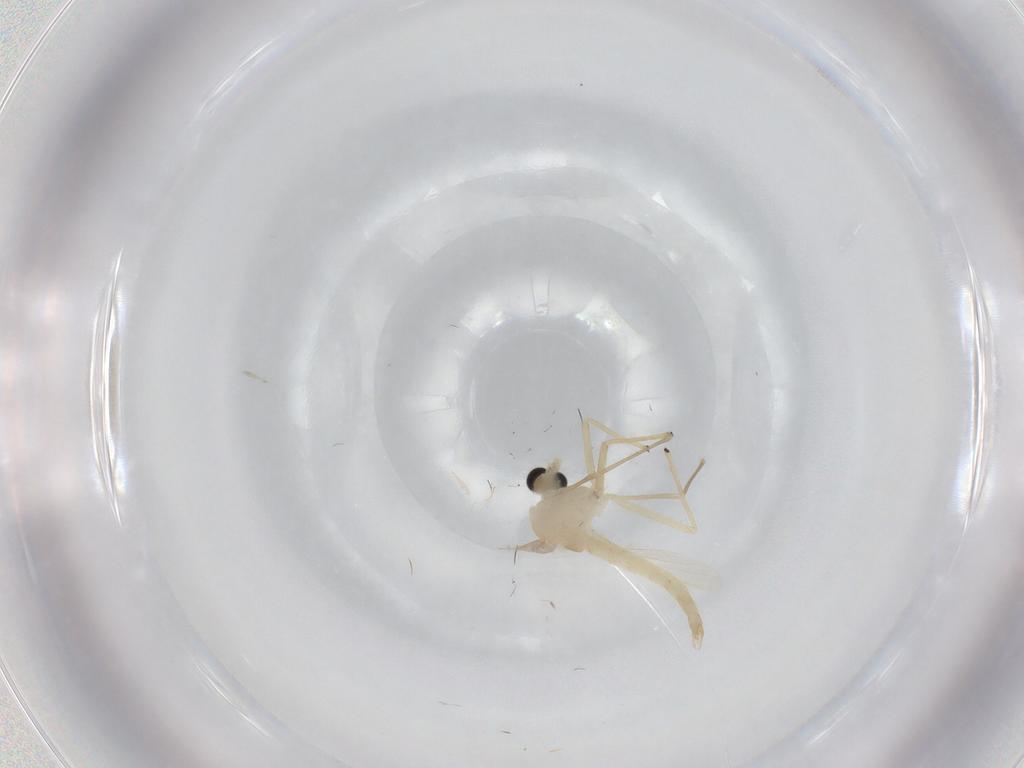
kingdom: Animalia
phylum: Arthropoda
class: Insecta
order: Diptera
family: Chironomidae
